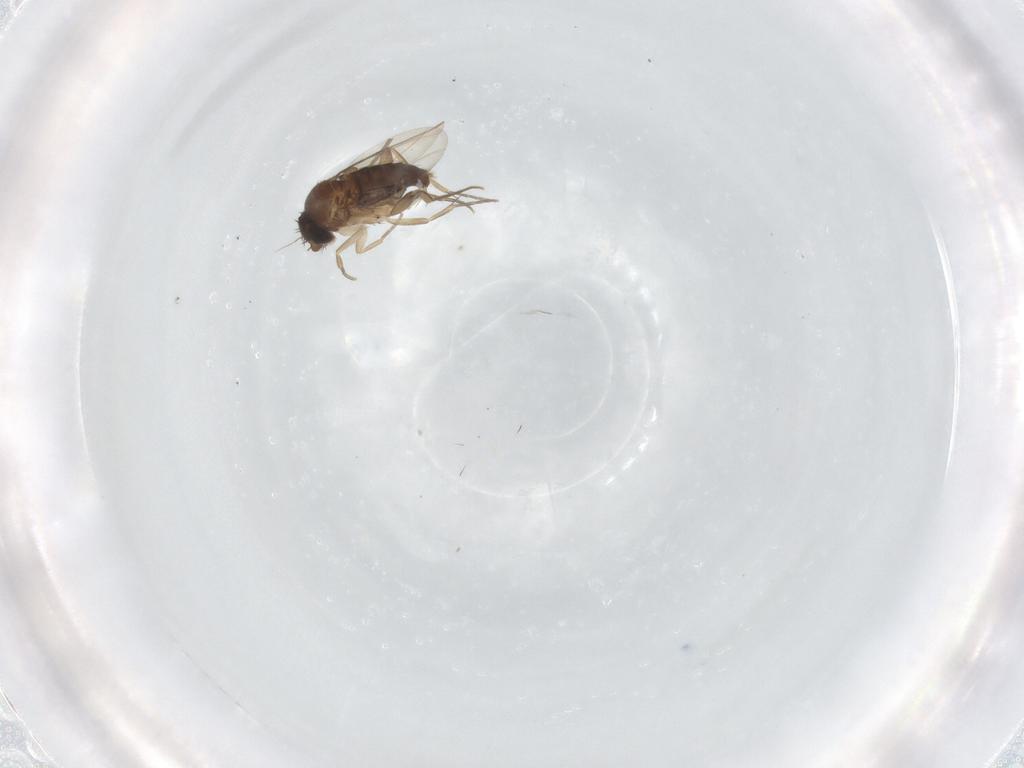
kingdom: Animalia
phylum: Arthropoda
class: Insecta
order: Diptera
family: Phoridae
